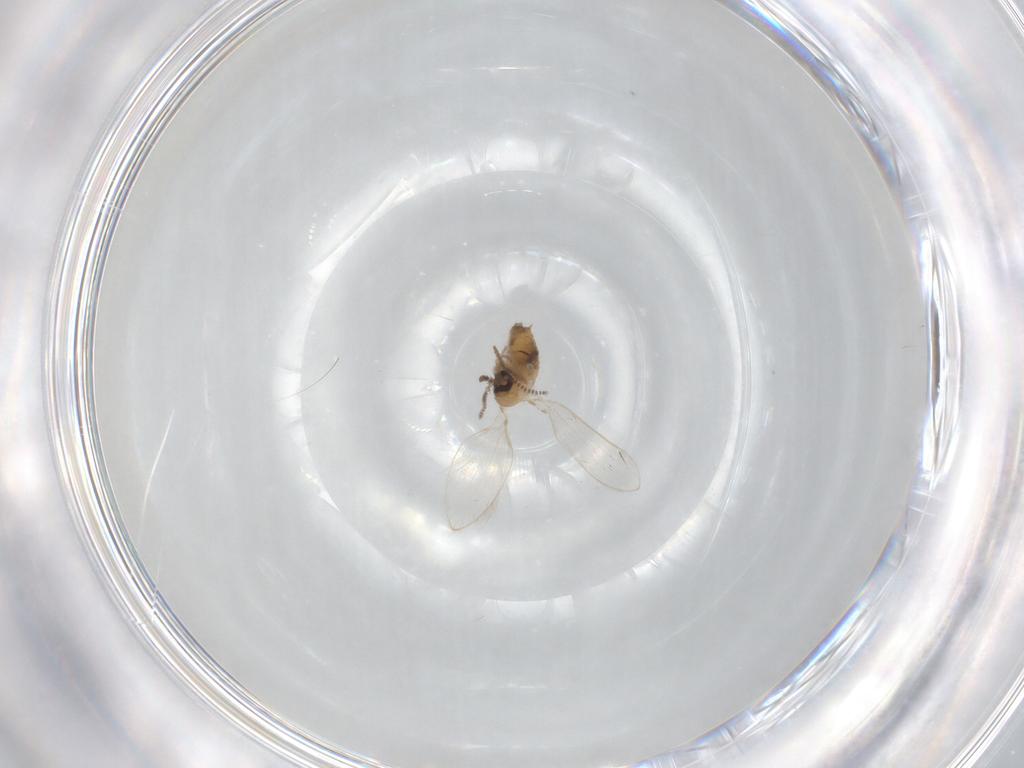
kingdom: Animalia
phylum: Arthropoda
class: Insecta
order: Diptera
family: Psychodidae
